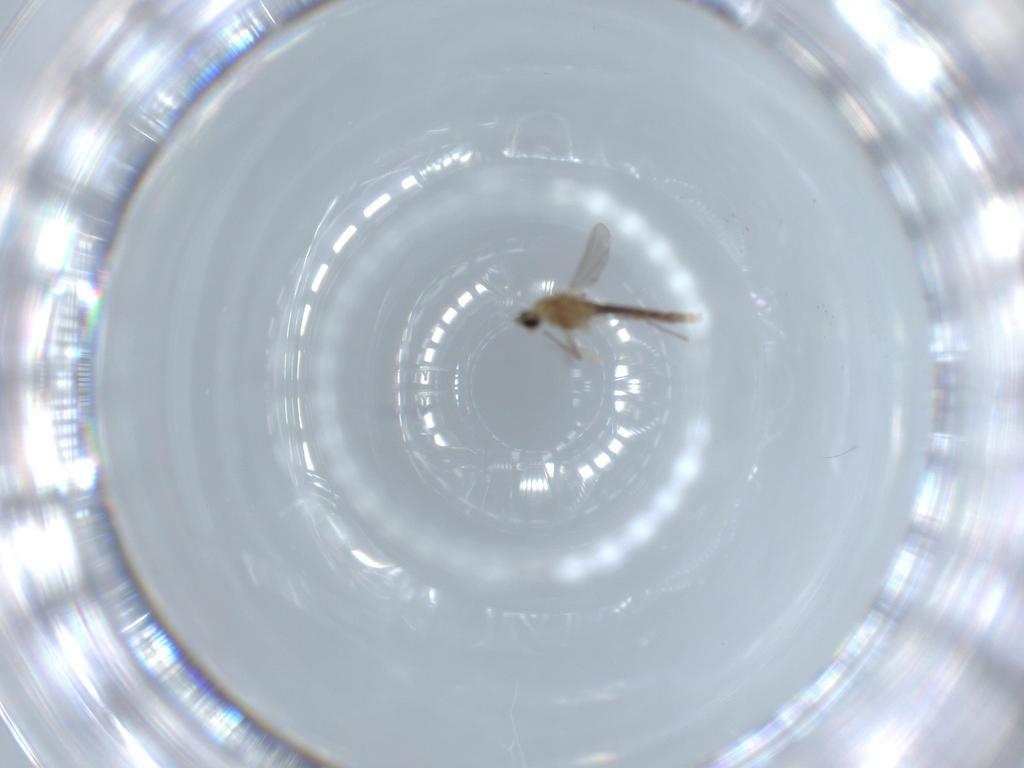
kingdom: Animalia
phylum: Arthropoda
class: Insecta
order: Diptera
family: Chironomidae
